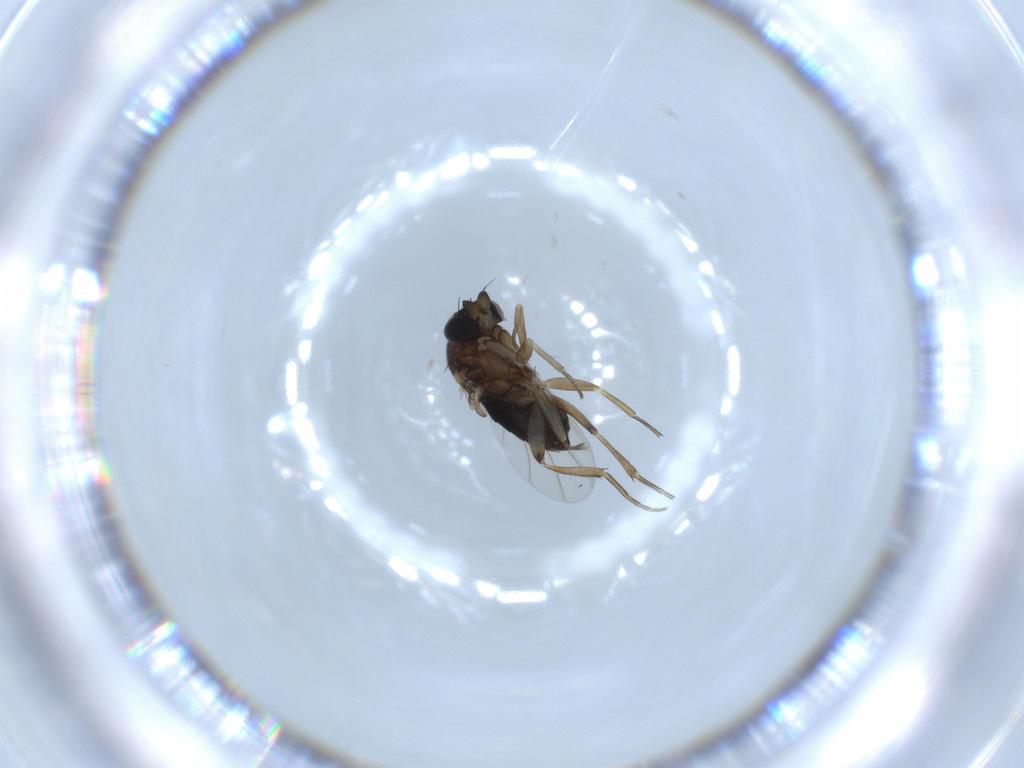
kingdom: Animalia
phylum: Arthropoda
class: Insecta
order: Diptera
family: Phoridae
